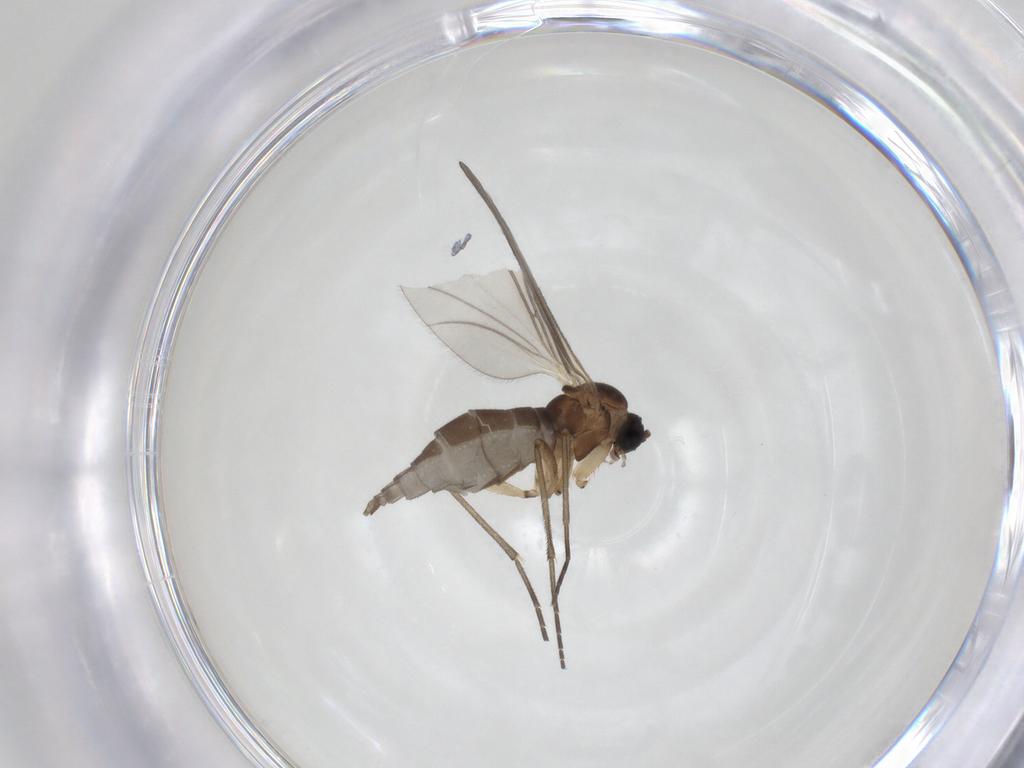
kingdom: Animalia
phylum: Arthropoda
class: Insecta
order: Diptera
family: Sciaridae
